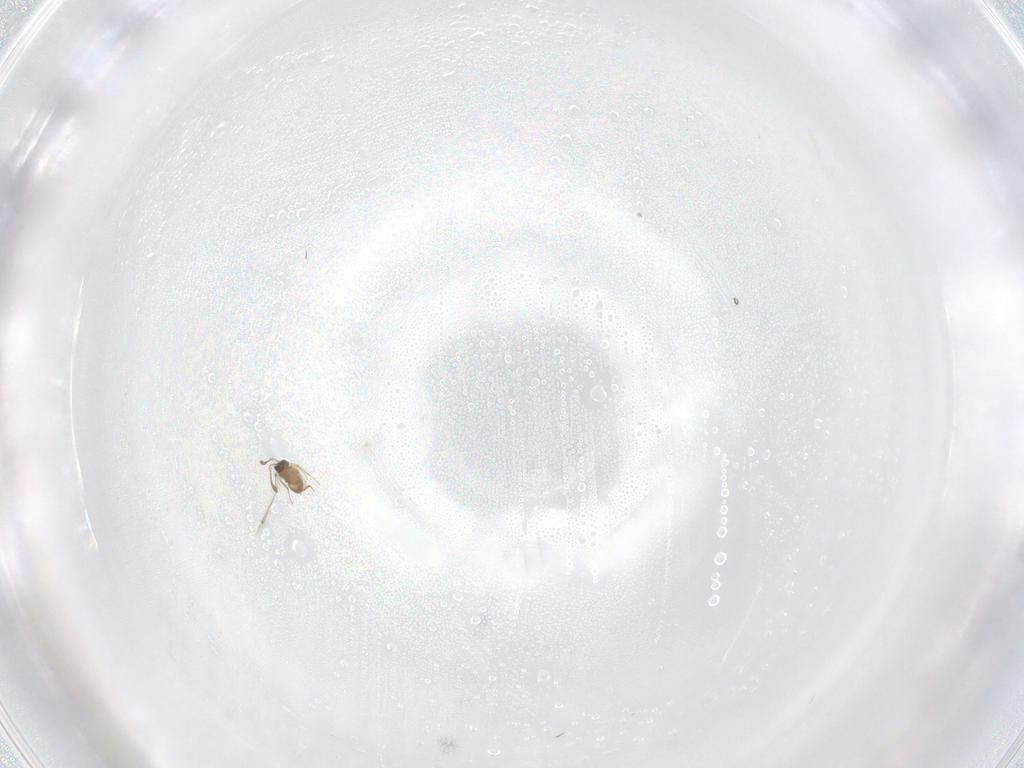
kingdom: Animalia
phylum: Arthropoda
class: Insecta
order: Hymenoptera
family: Mymaridae
